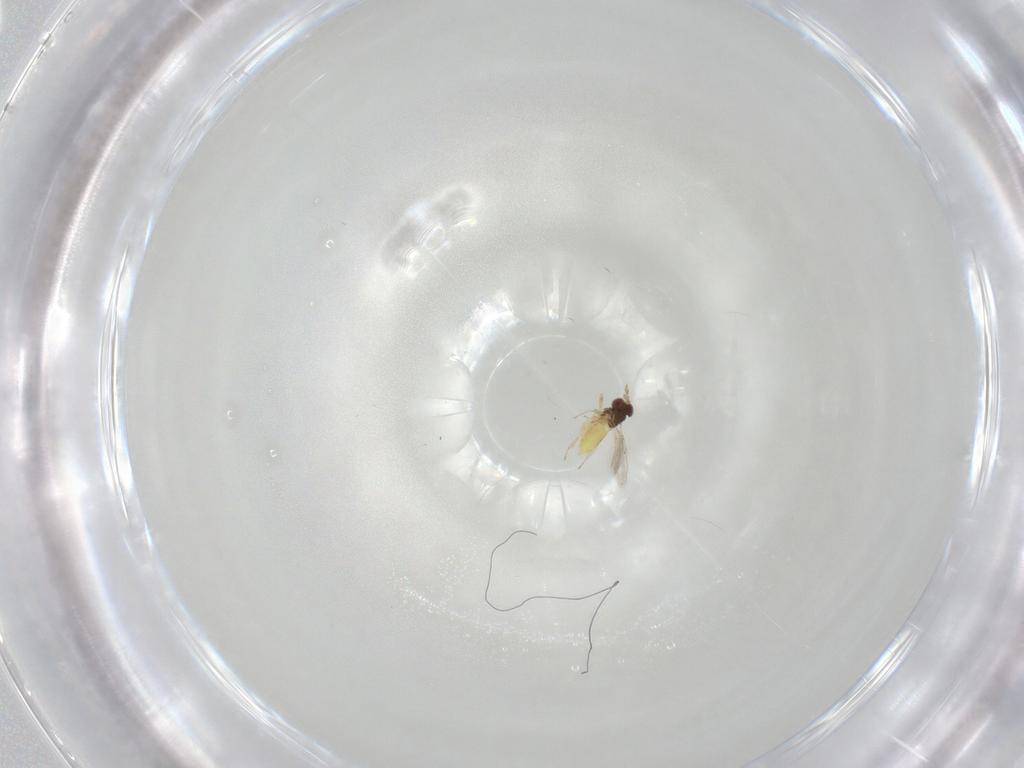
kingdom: Animalia
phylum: Arthropoda
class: Insecta
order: Hymenoptera
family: Trichogrammatidae
